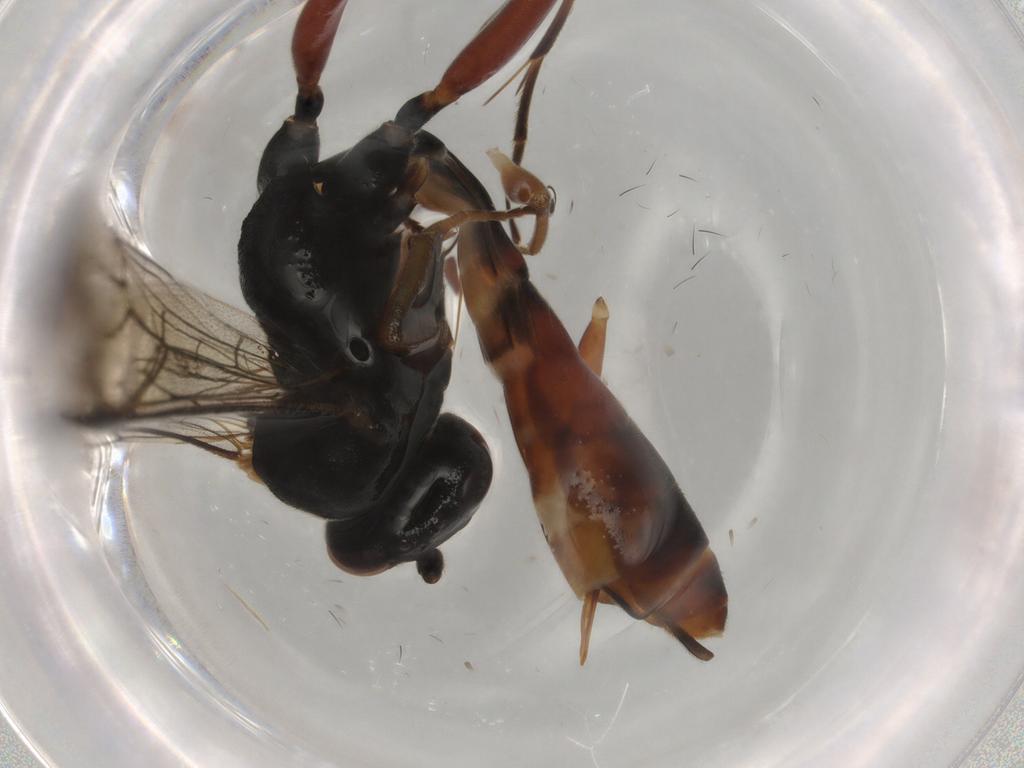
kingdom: Animalia
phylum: Arthropoda
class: Insecta
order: Hymenoptera
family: Ichneumonidae
